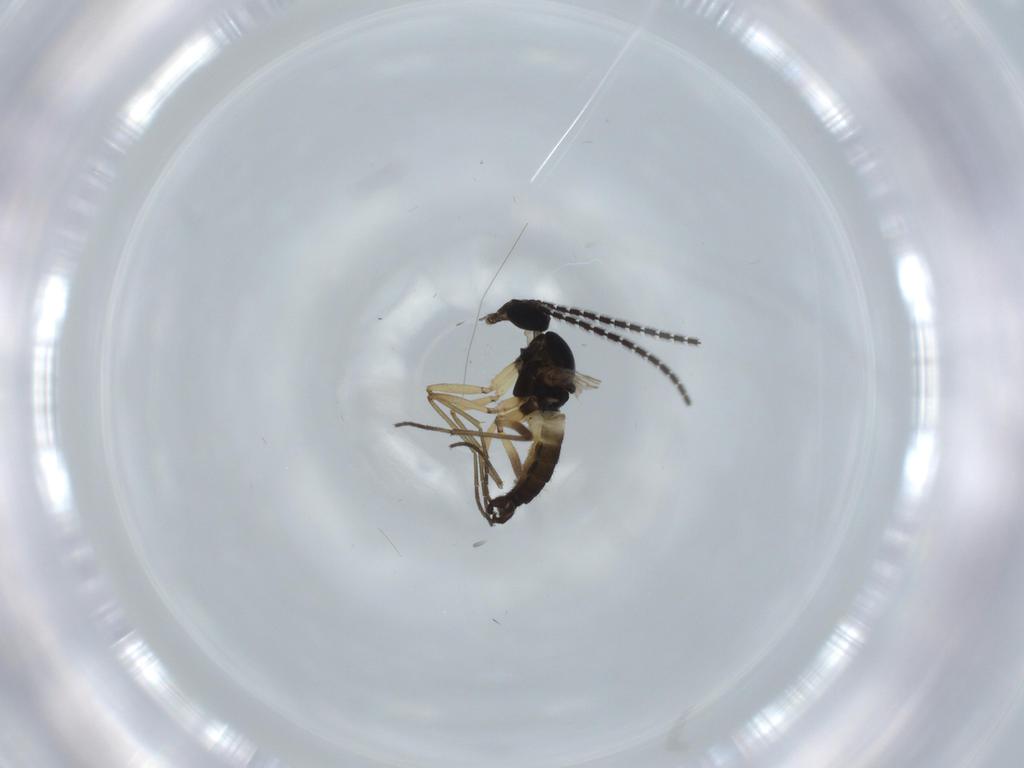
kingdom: Animalia
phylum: Arthropoda
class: Insecta
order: Diptera
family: Sciaridae
